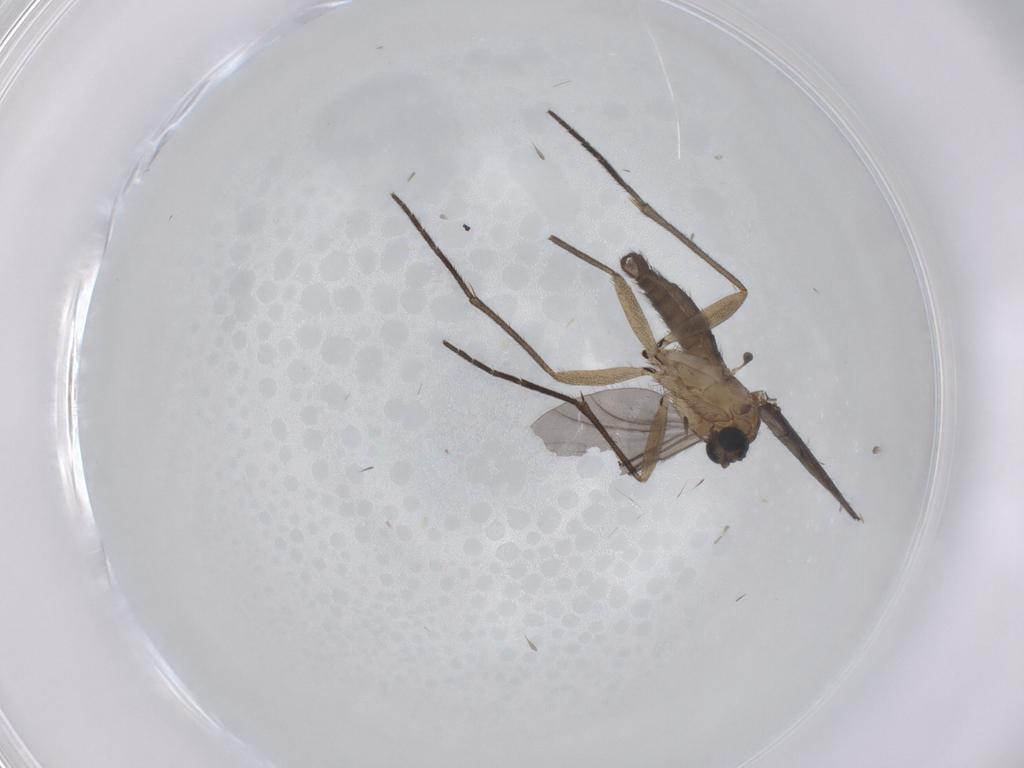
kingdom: Animalia
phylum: Arthropoda
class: Insecta
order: Diptera
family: Sciaridae
